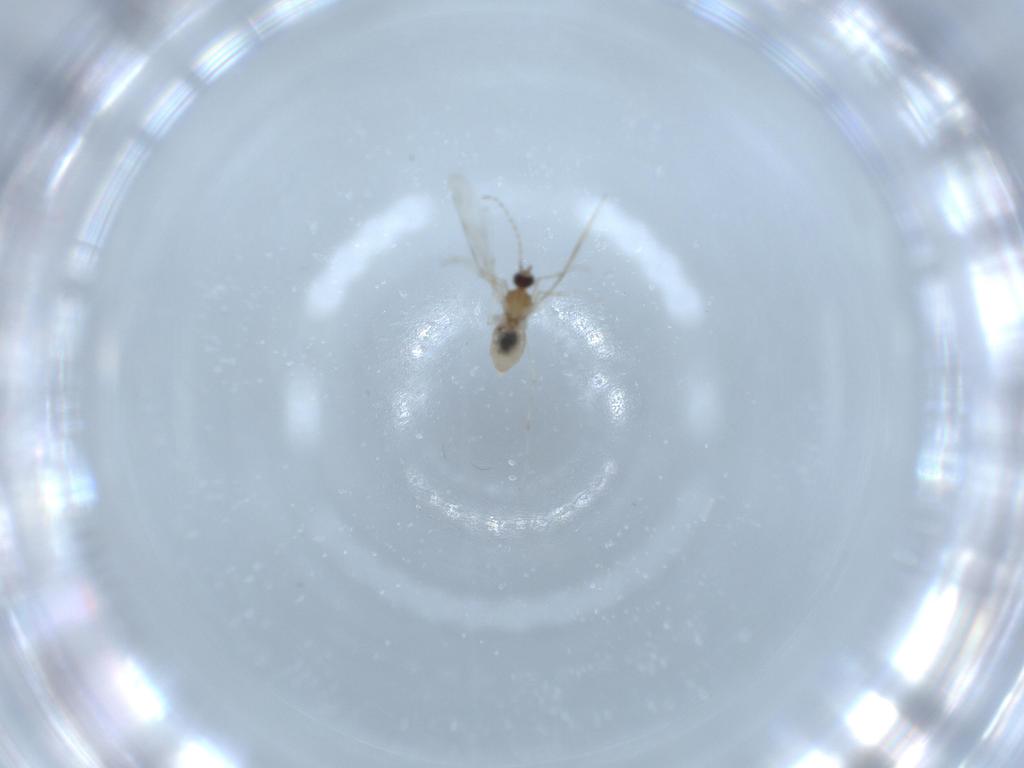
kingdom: Animalia
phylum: Arthropoda
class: Insecta
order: Diptera
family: Cecidomyiidae
